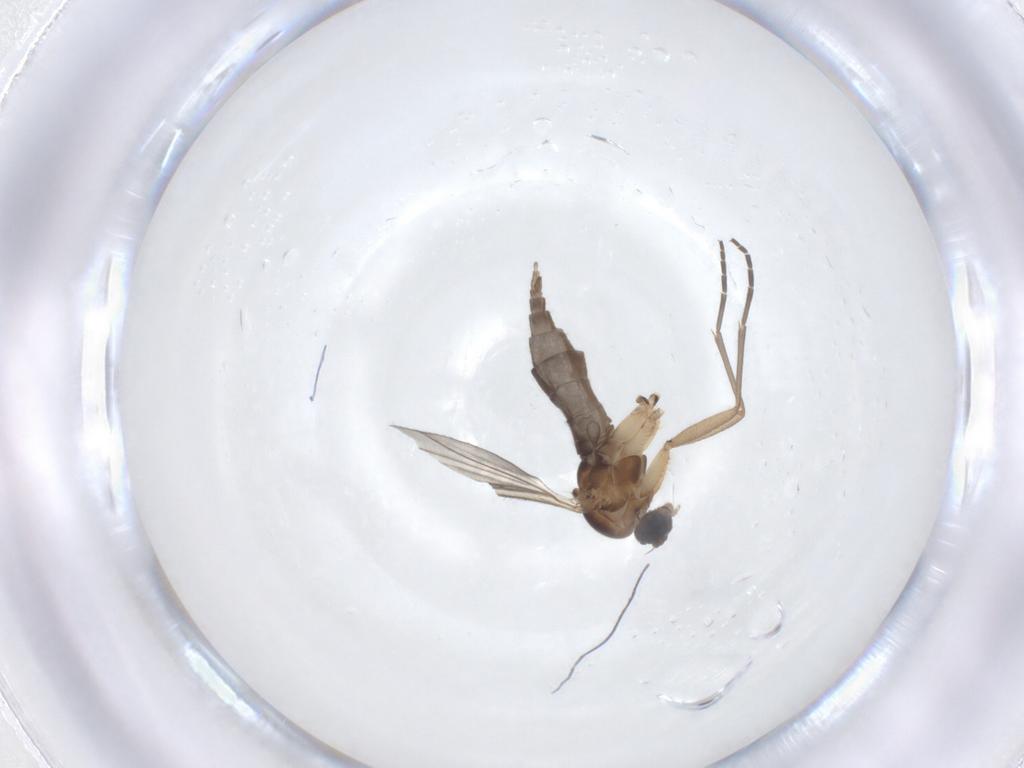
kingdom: Animalia
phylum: Arthropoda
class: Insecta
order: Diptera
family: Sciaridae
